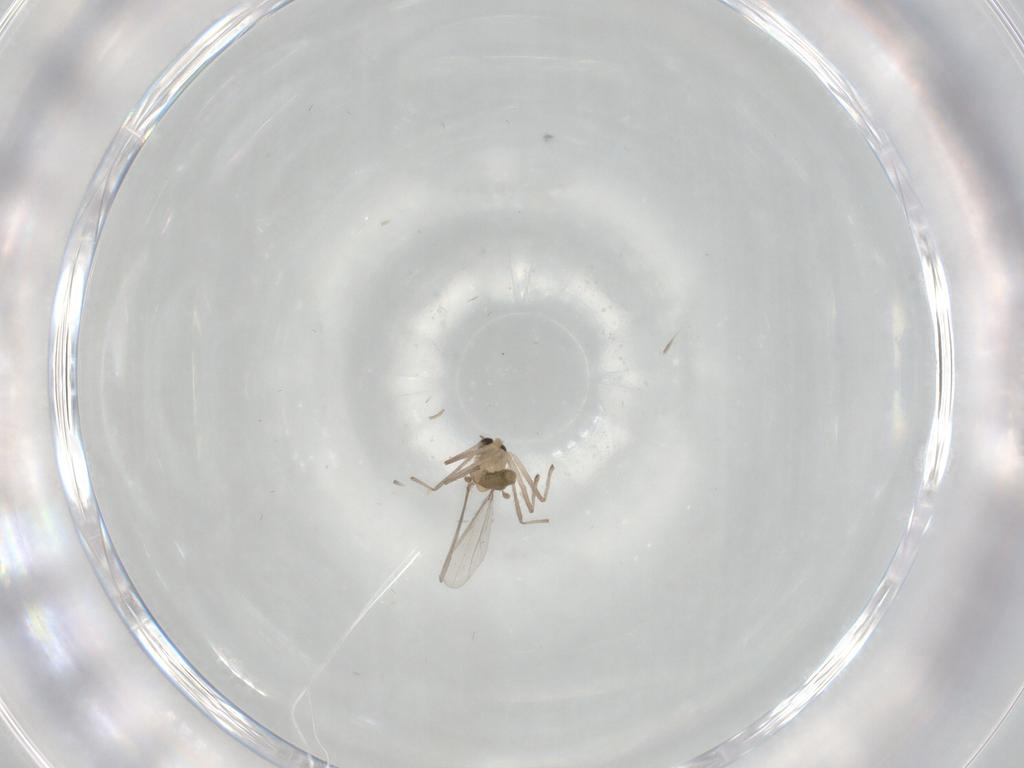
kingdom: Animalia
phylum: Arthropoda
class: Insecta
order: Diptera
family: Chironomidae
